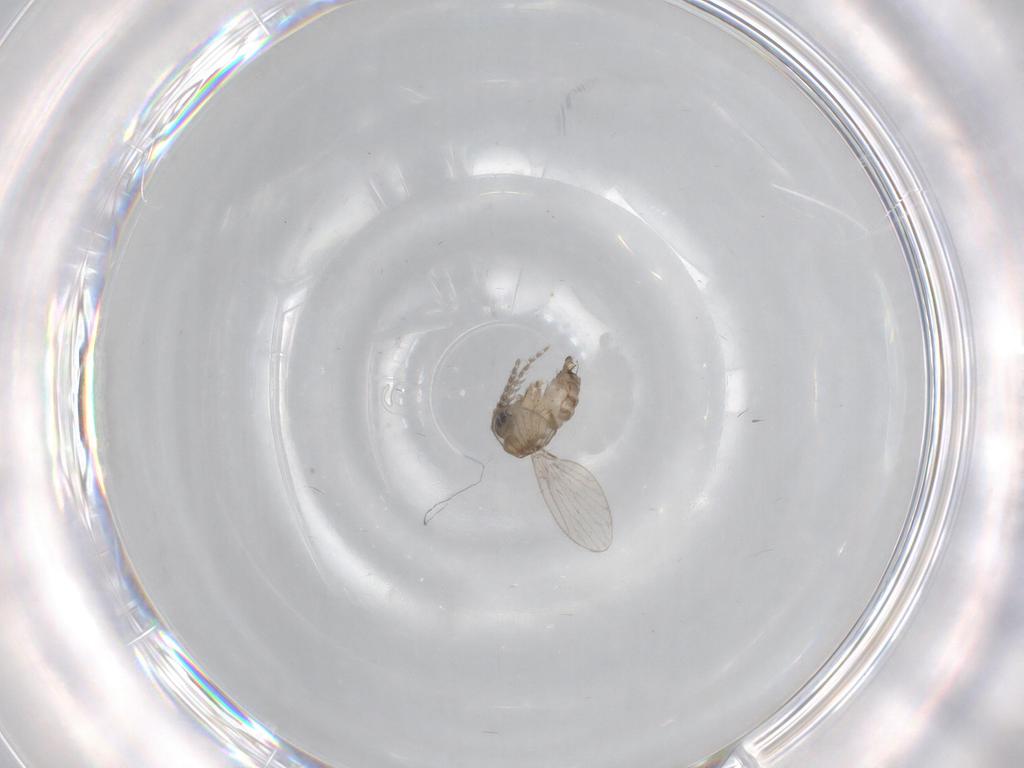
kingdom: Animalia
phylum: Arthropoda
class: Insecta
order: Diptera
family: Psychodidae
